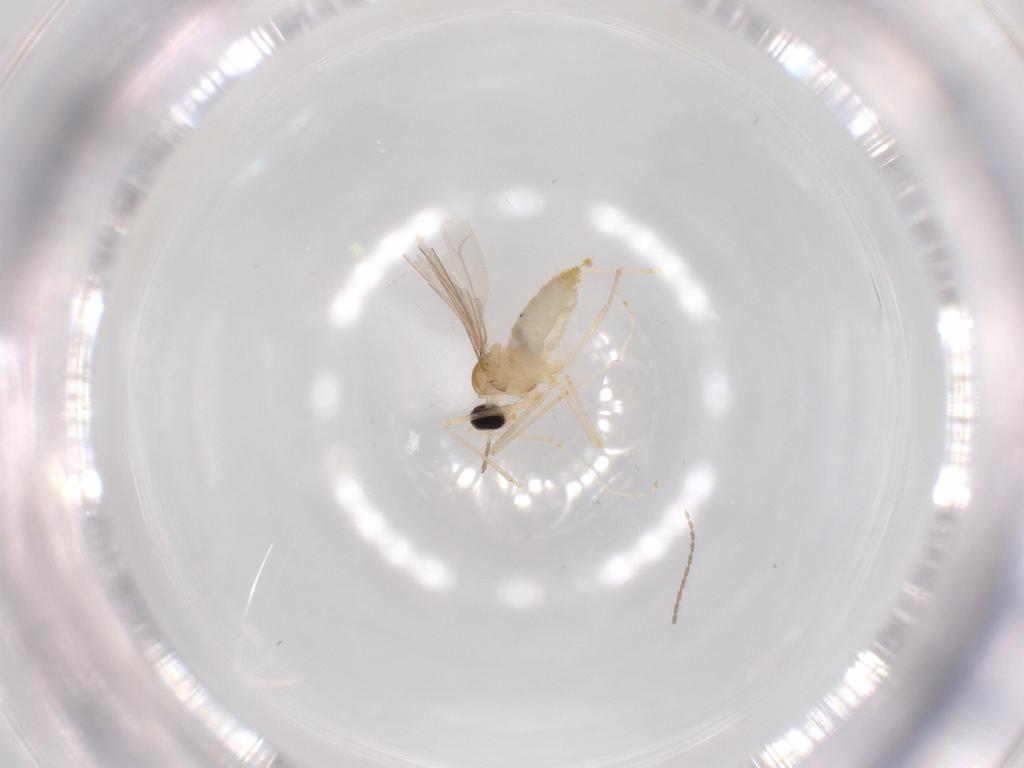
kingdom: Animalia
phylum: Arthropoda
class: Insecta
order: Diptera
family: Cecidomyiidae
